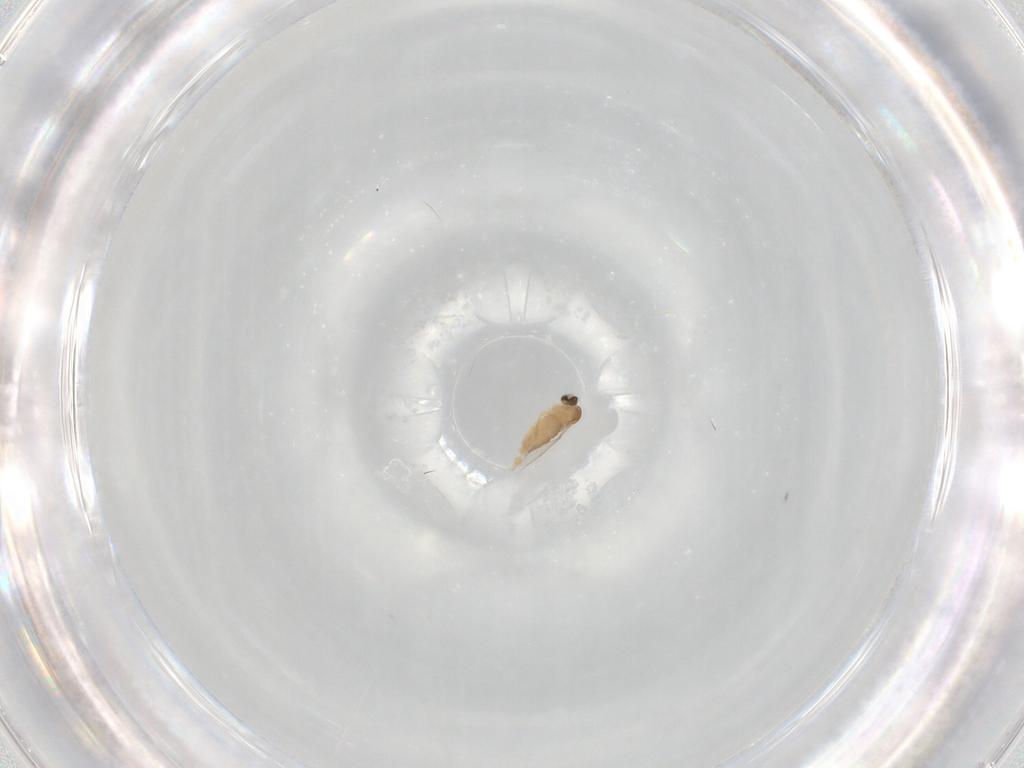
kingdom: Animalia
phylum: Arthropoda
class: Insecta
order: Diptera
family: Cecidomyiidae
